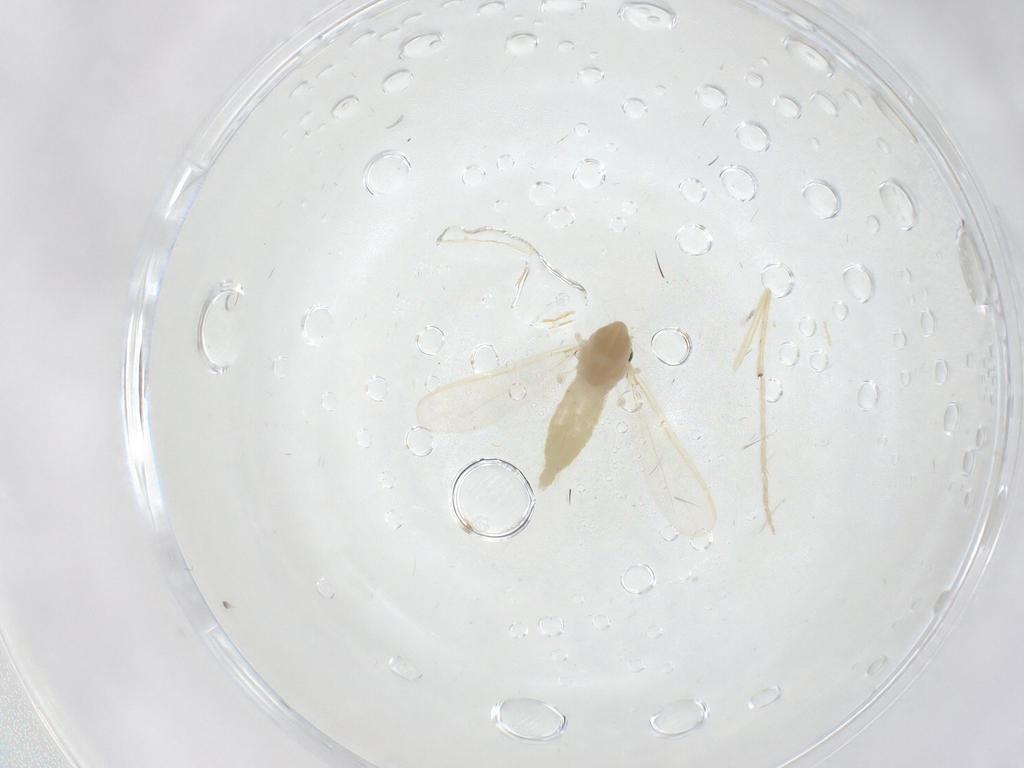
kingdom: Animalia
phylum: Arthropoda
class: Insecta
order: Diptera
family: Chironomidae
